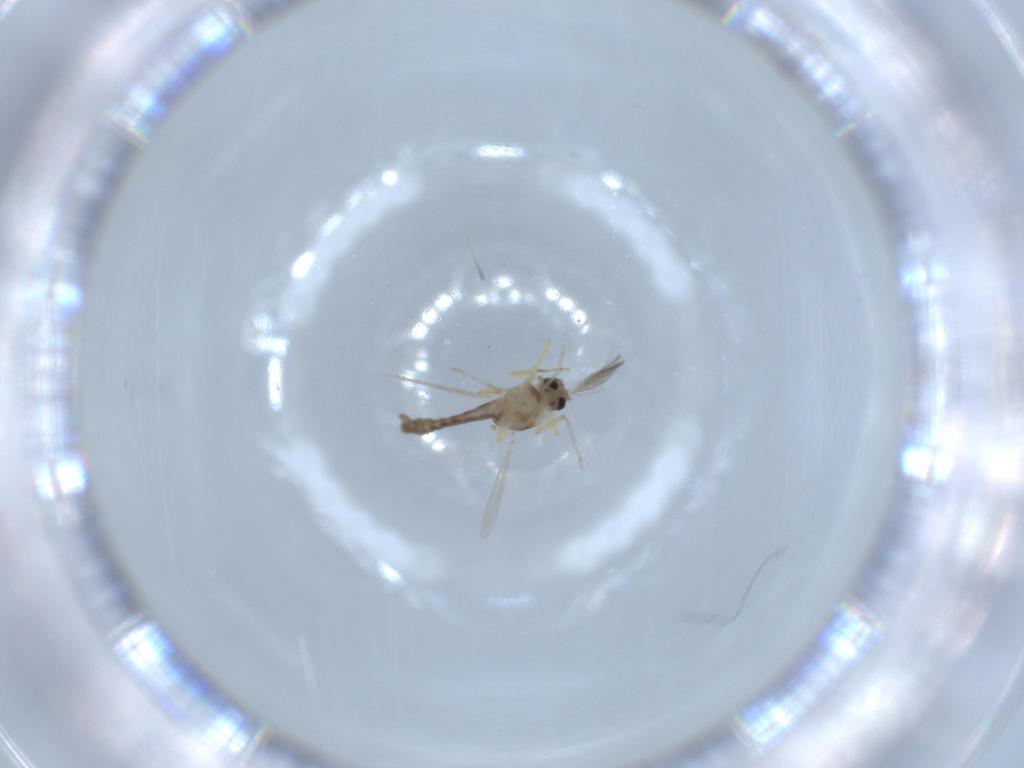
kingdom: Animalia
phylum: Arthropoda
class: Insecta
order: Diptera
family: Ceratopogonidae
